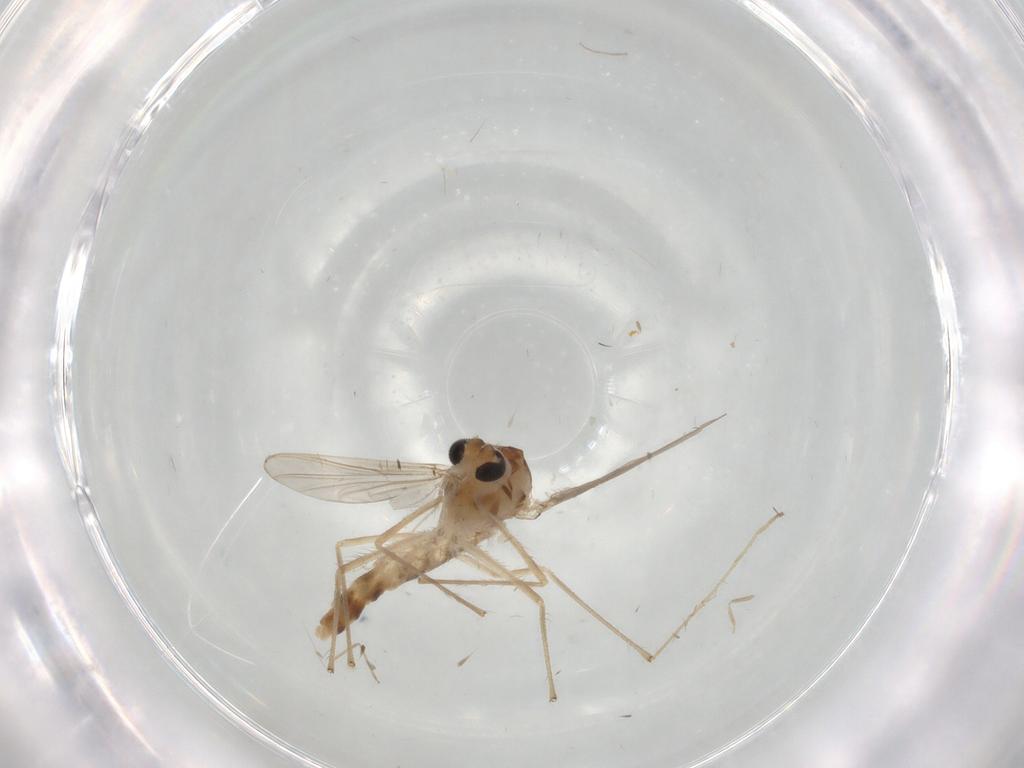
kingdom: Animalia
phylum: Arthropoda
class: Insecta
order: Diptera
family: Chironomidae
